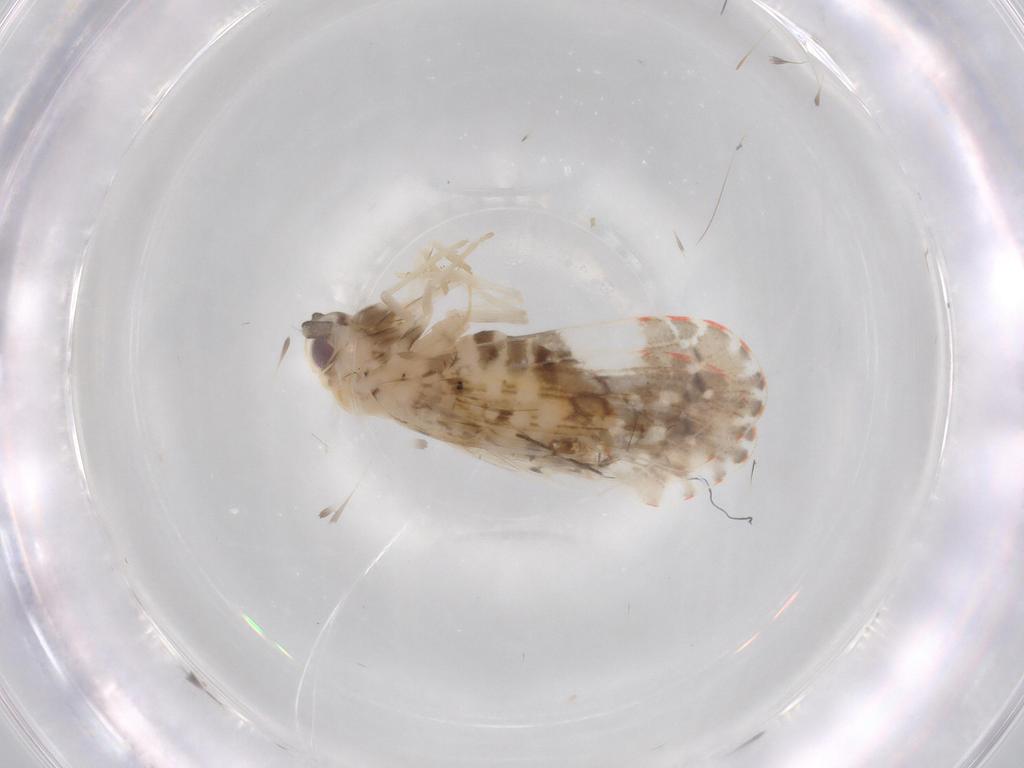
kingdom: Animalia
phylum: Arthropoda
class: Insecta
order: Hemiptera
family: Derbidae
